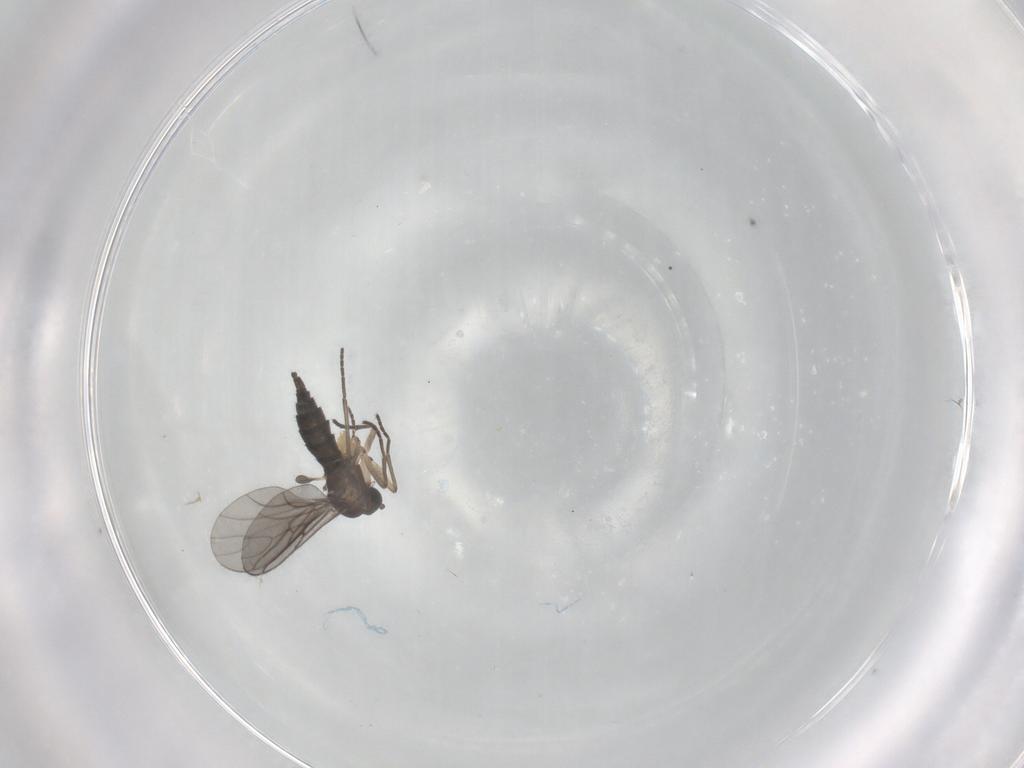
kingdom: Animalia
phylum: Arthropoda
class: Insecta
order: Diptera
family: Sciaridae
